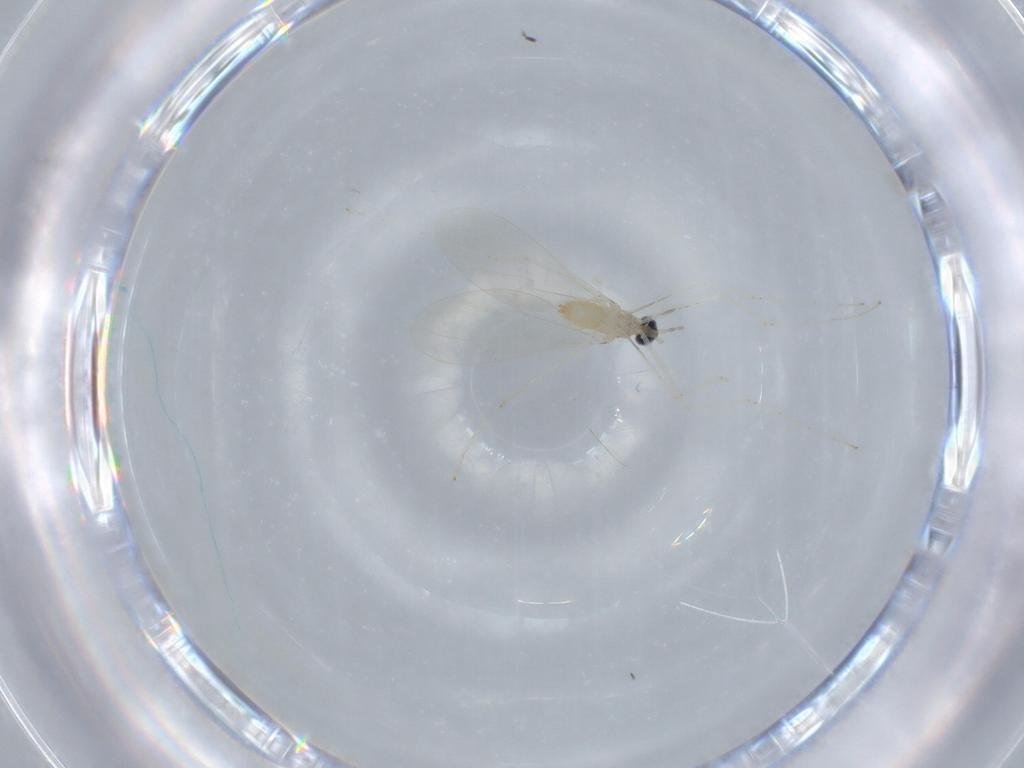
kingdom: Animalia
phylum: Arthropoda
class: Insecta
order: Diptera
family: Cecidomyiidae
